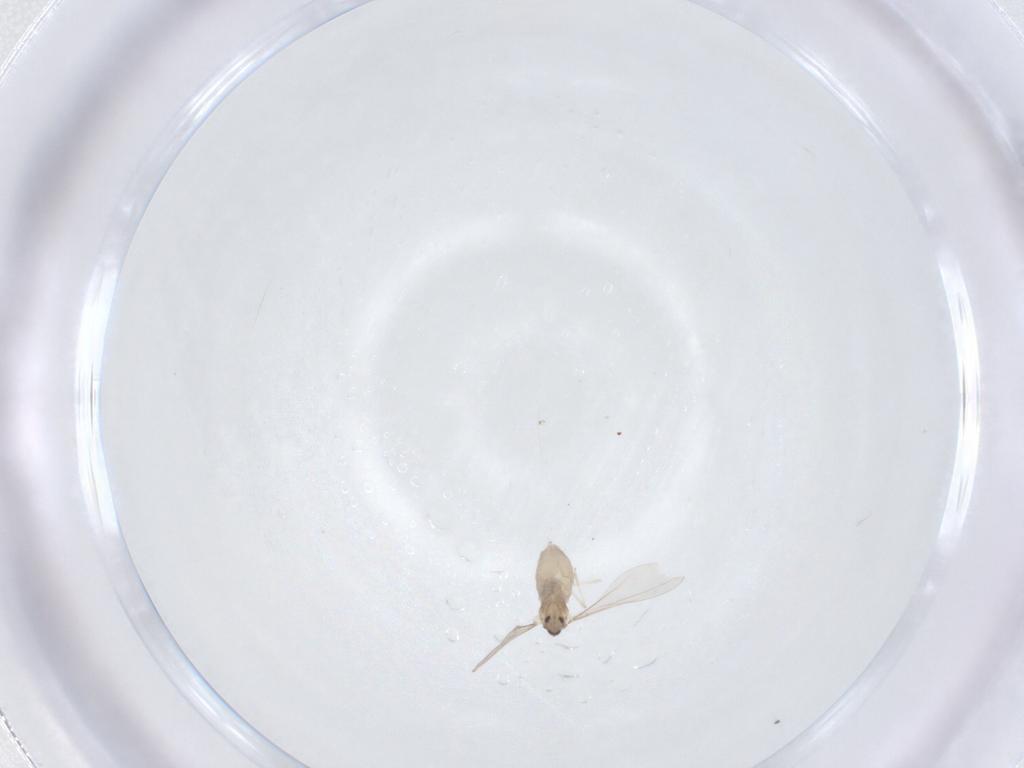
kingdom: Animalia
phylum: Arthropoda
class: Insecta
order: Diptera
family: Cecidomyiidae
